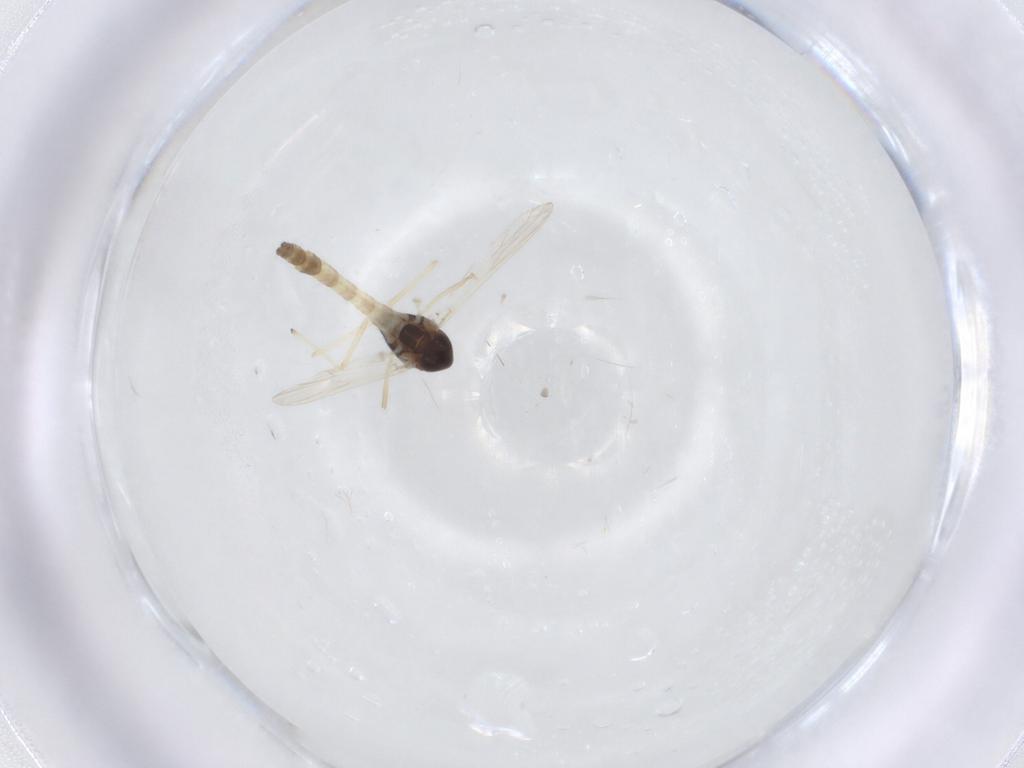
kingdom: Animalia
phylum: Arthropoda
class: Insecta
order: Diptera
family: Chironomidae
